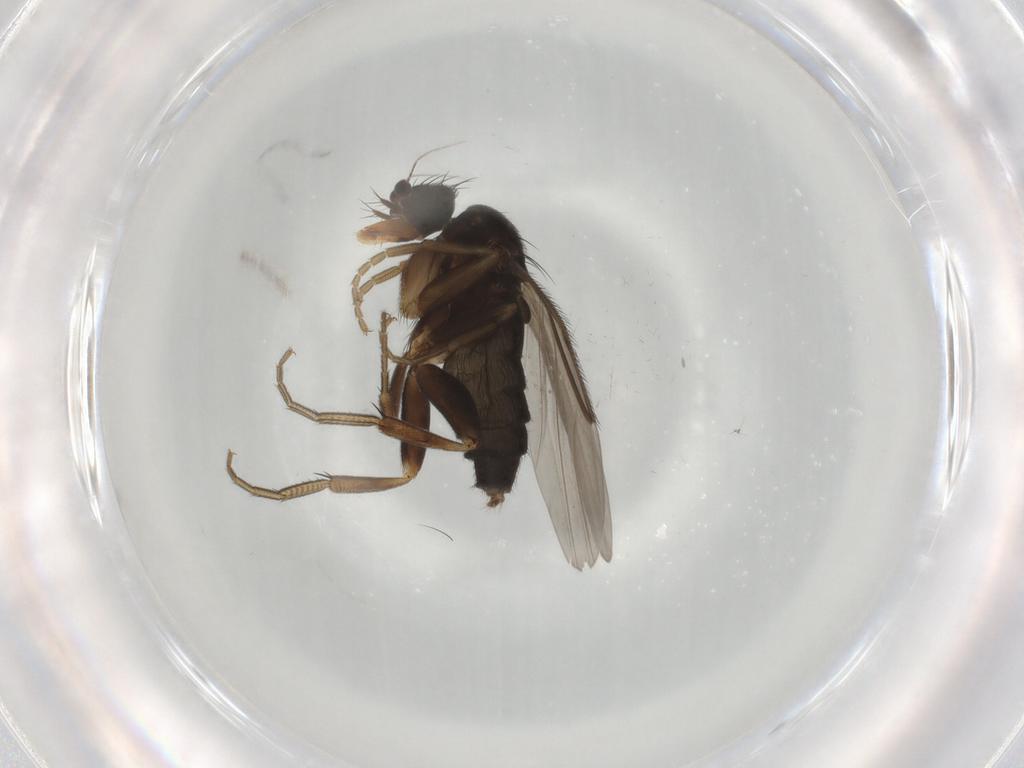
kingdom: Animalia
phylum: Arthropoda
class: Insecta
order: Diptera
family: Phoridae
